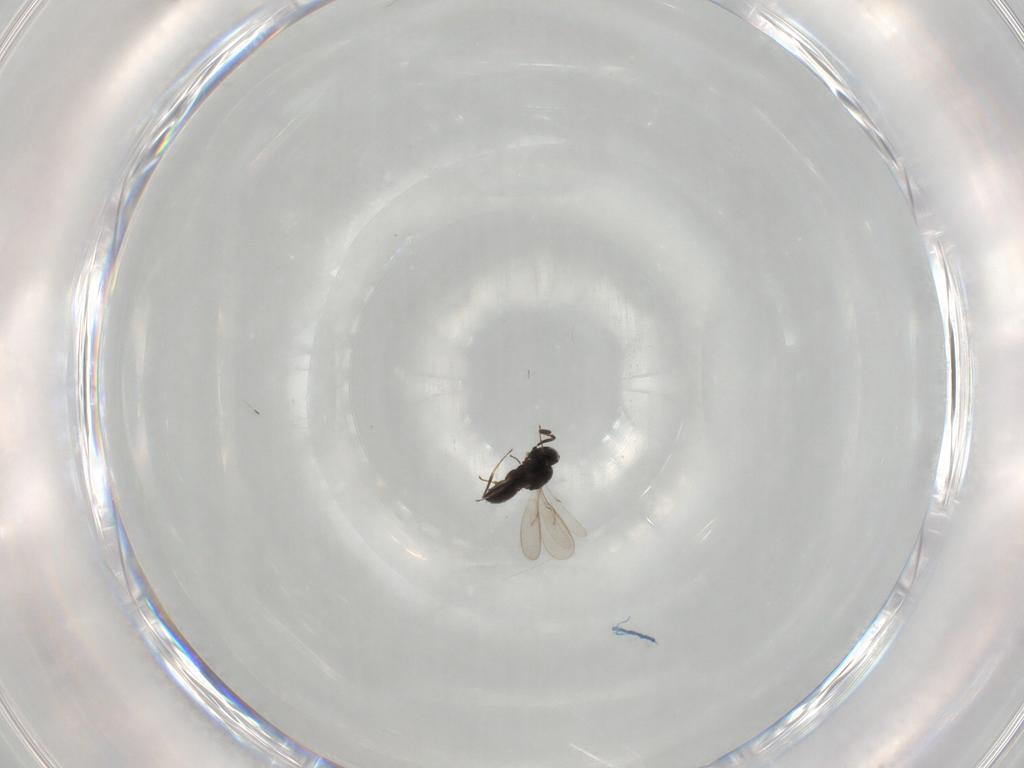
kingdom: Animalia
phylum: Arthropoda
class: Insecta
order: Hymenoptera
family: Scelionidae
